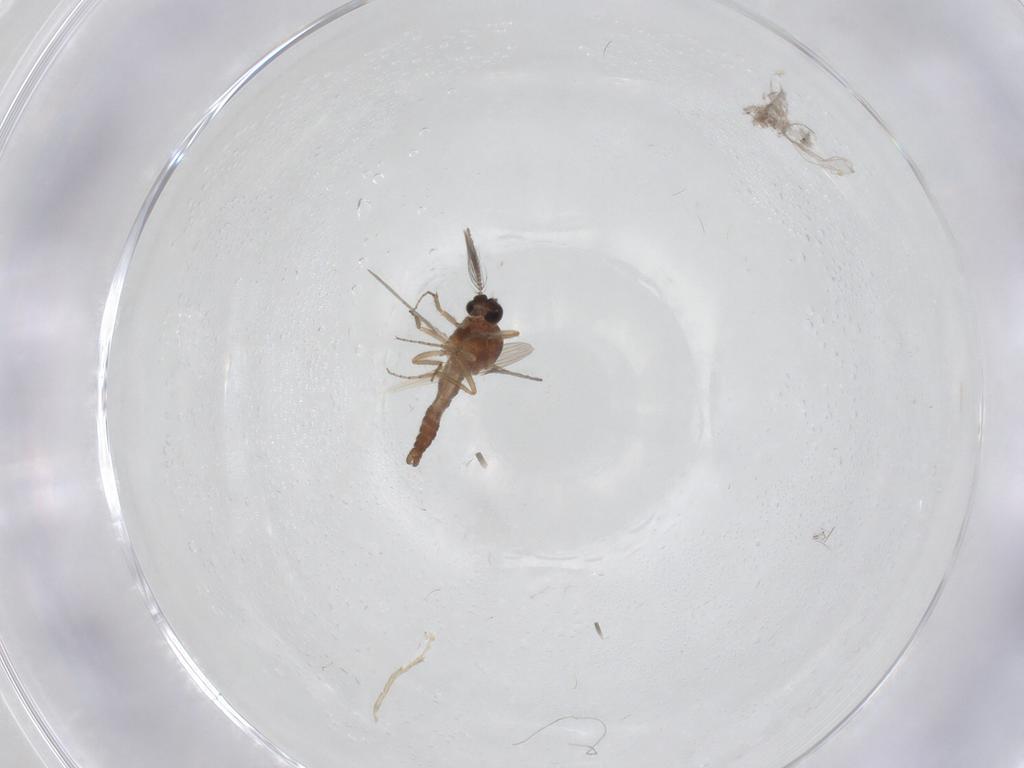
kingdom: Animalia
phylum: Arthropoda
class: Insecta
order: Diptera
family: Ceratopogonidae
